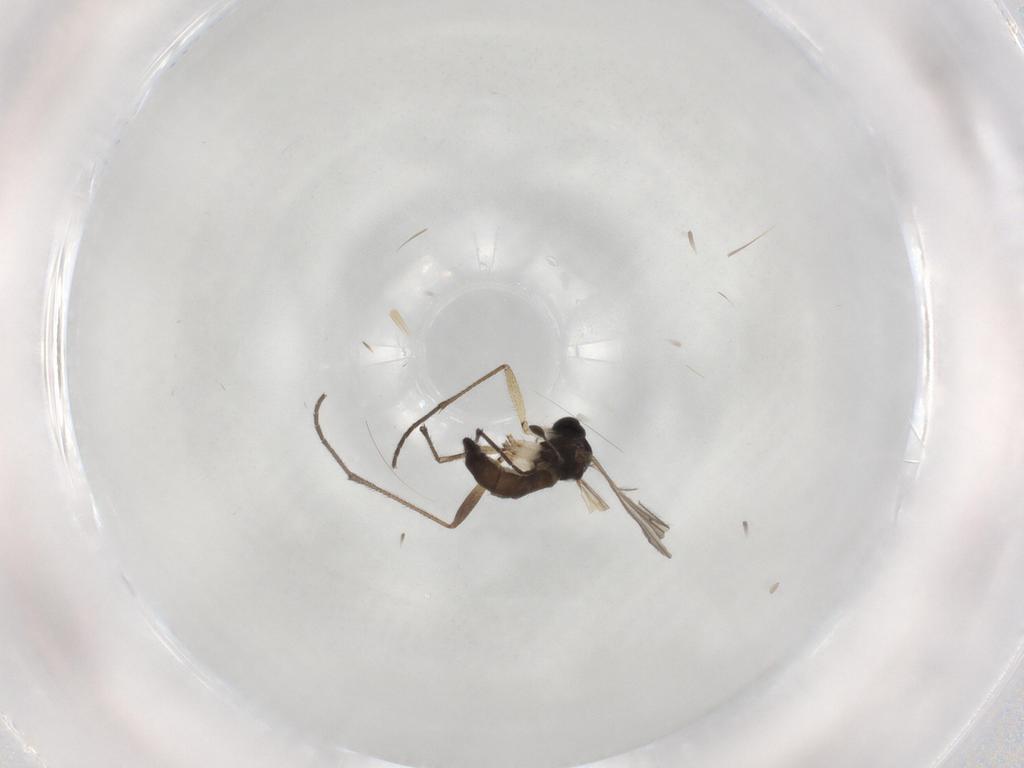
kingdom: Animalia
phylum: Arthropoda
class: Insecta
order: Diptera
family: Sciaridae
